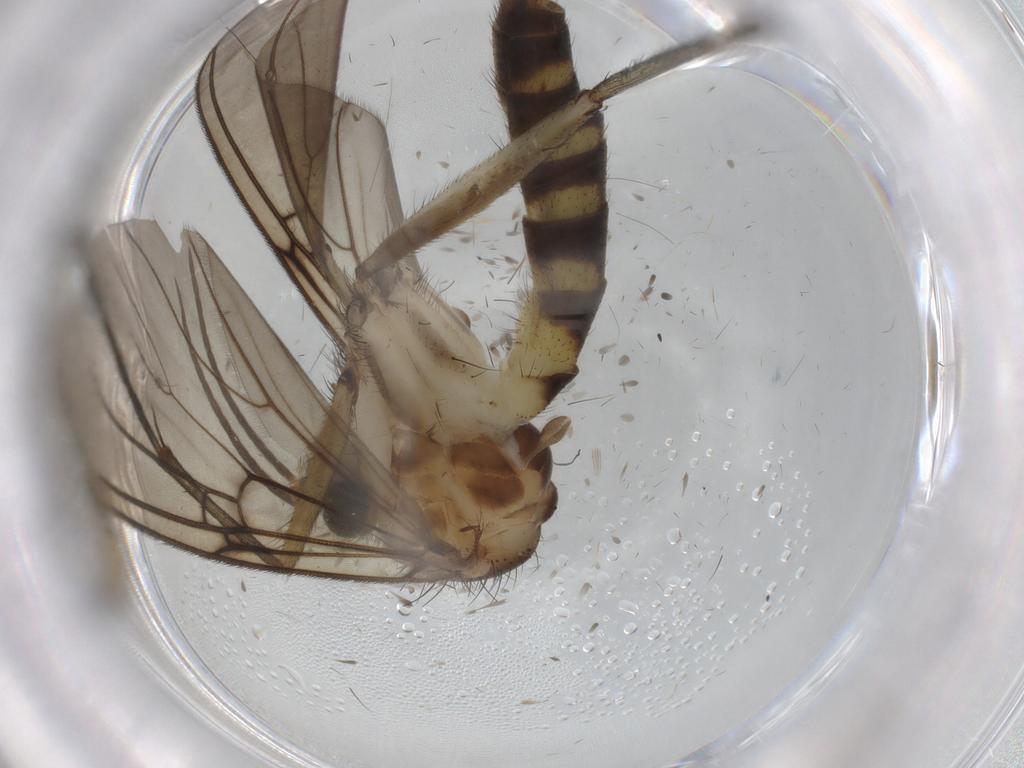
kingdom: Animalia
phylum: Arthropoda
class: Insecta
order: Diptera
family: Mycetophilidae
